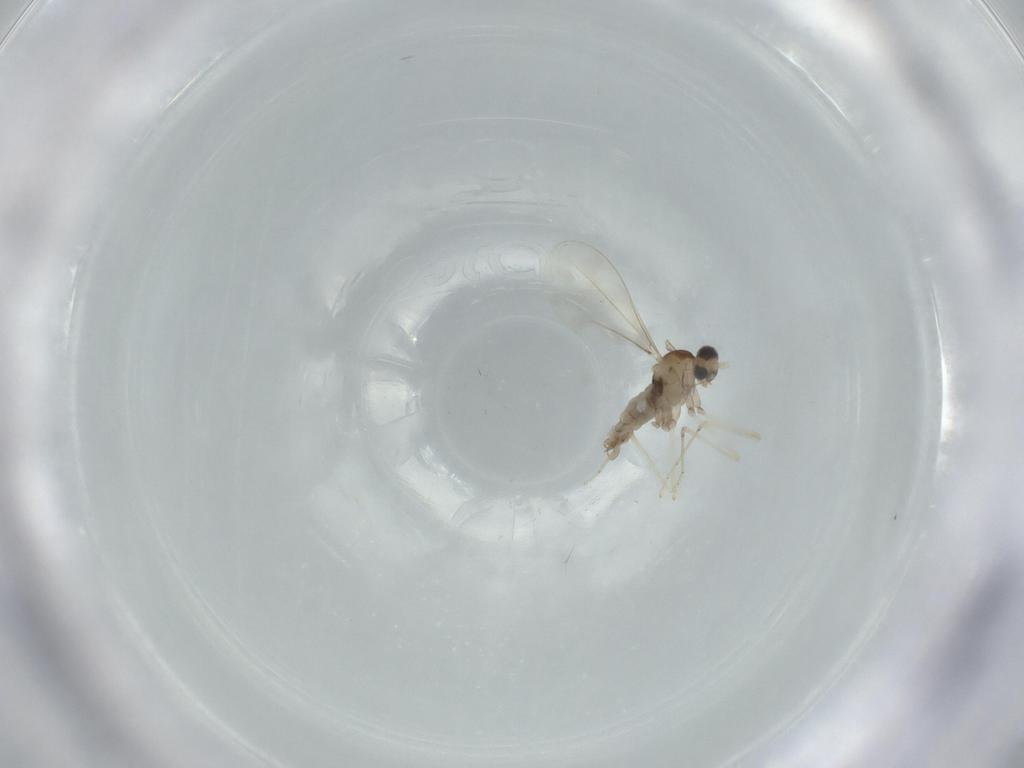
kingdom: Animalia
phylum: Arthropoda
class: Insecta
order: Diptera
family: Cecidomyiidae
